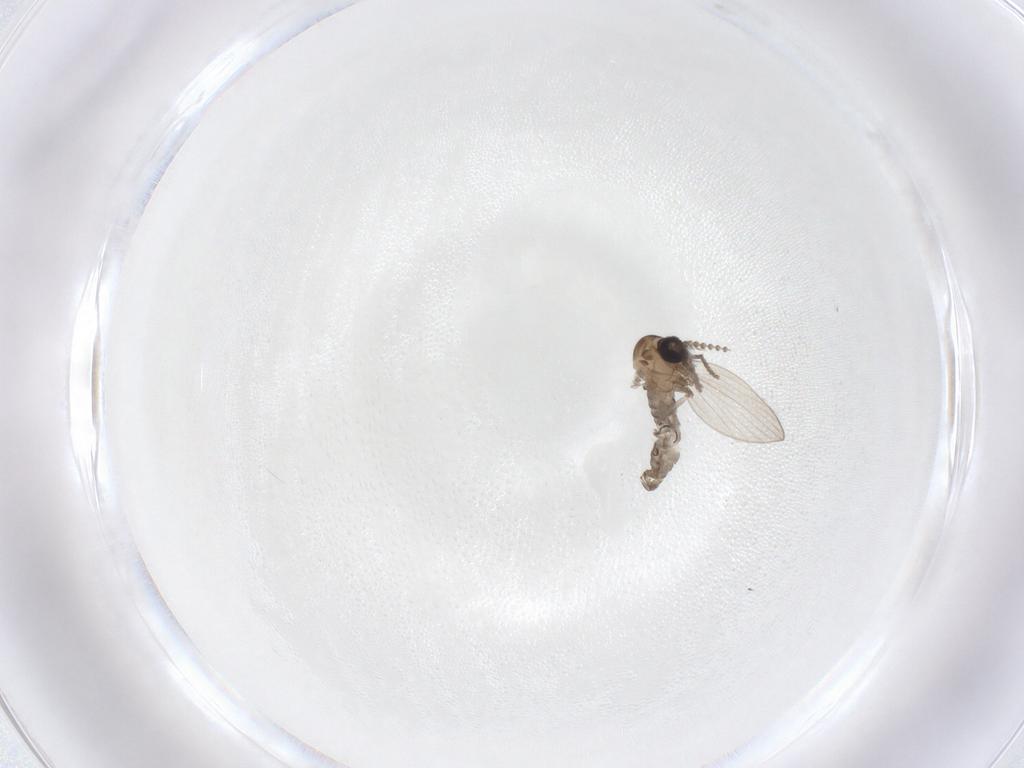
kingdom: Animalia
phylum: Arthropoda
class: Insecta
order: Diptera
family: Psychodidae
